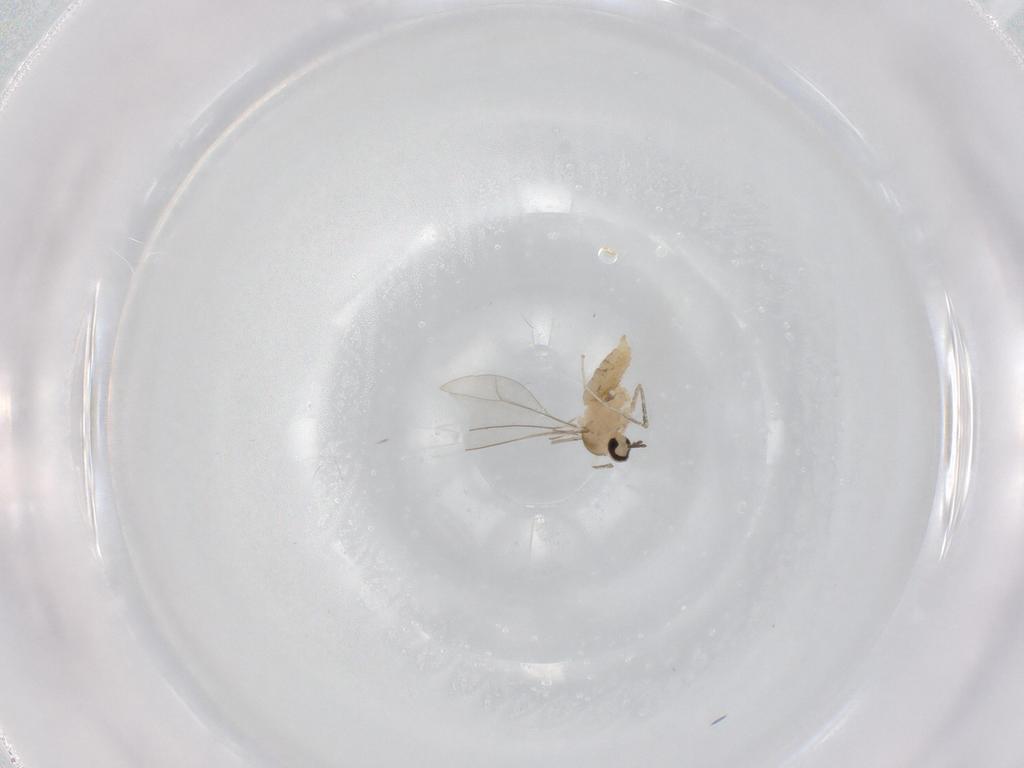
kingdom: Animalia
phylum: Arthropoda
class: Insecta
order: Diptera
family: Cecidomyiidae
